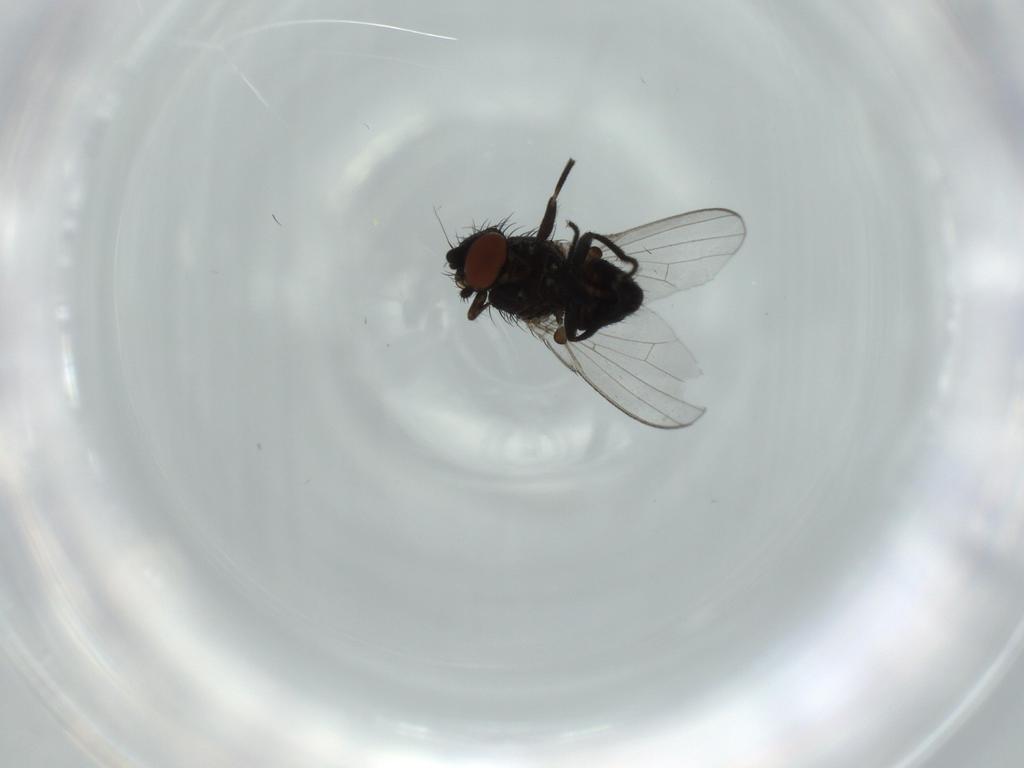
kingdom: Animalia
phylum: Arthropoda
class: Insecta
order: Diptera
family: Milichiidae
